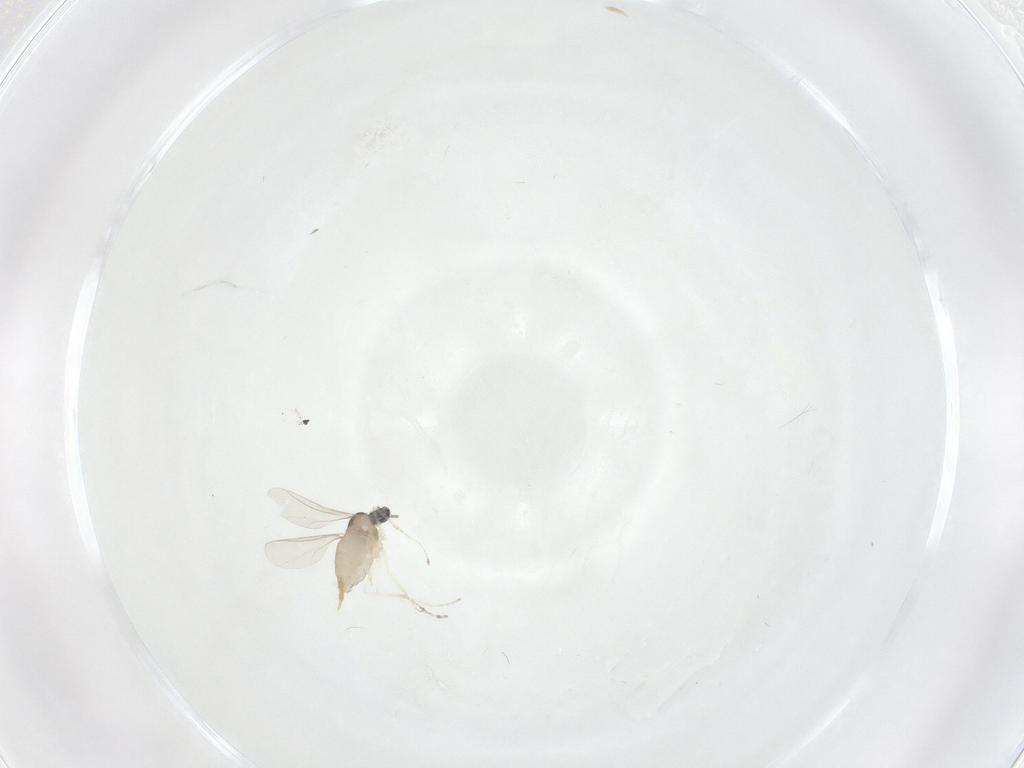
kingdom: Animalia
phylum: Arthropoda
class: Insecta
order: Diptera
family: Cecidomyiidae
